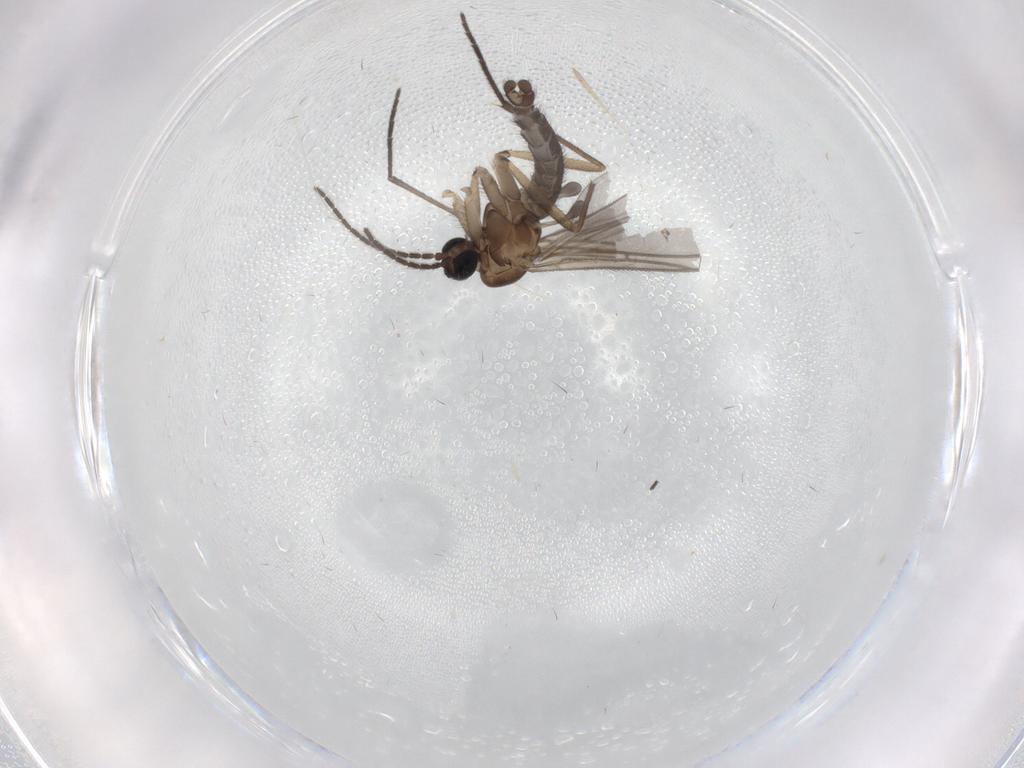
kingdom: Animalia
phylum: Arthropoda
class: Insecta
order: Diptera
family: Sciaridae
